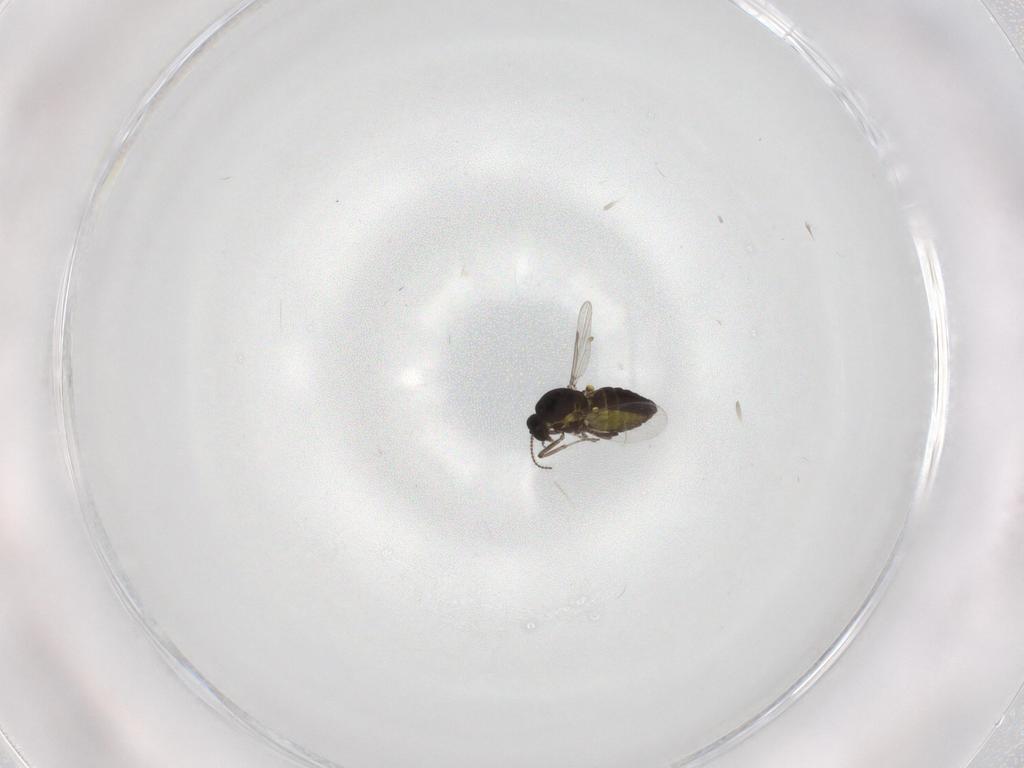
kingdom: Animalia
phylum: Arthropoda
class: Insecta
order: Diptera
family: Ceratopogonidae
